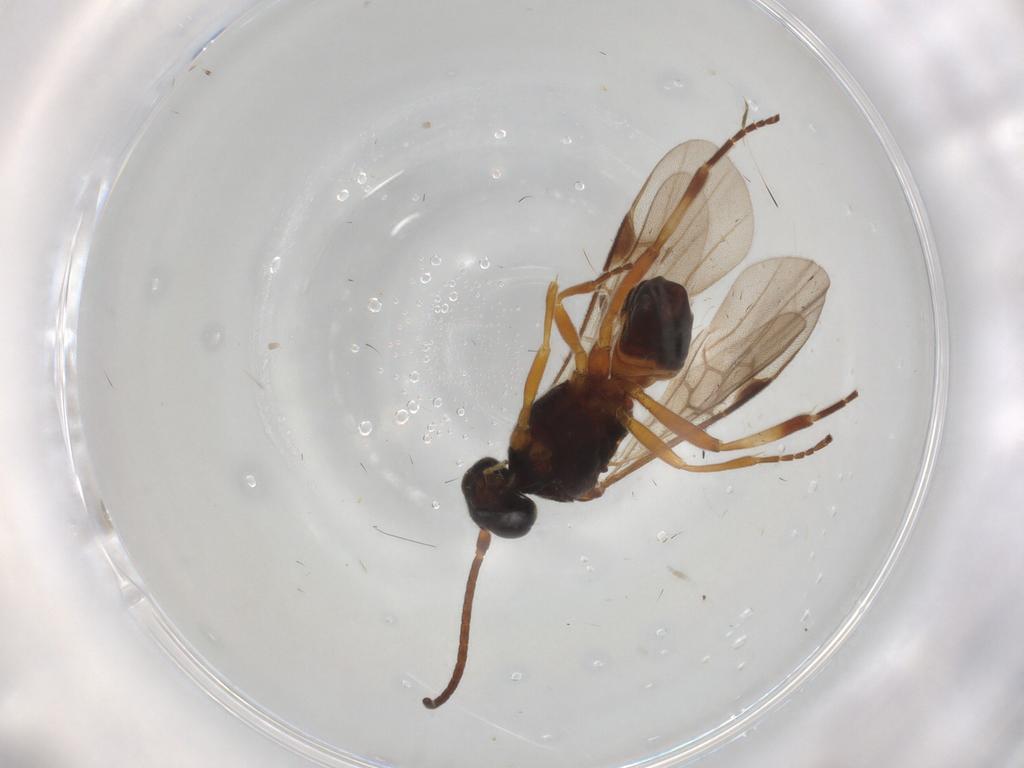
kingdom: Animalia
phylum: Arthropoda
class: Insecta
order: Hymenoptera
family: Braconidae
